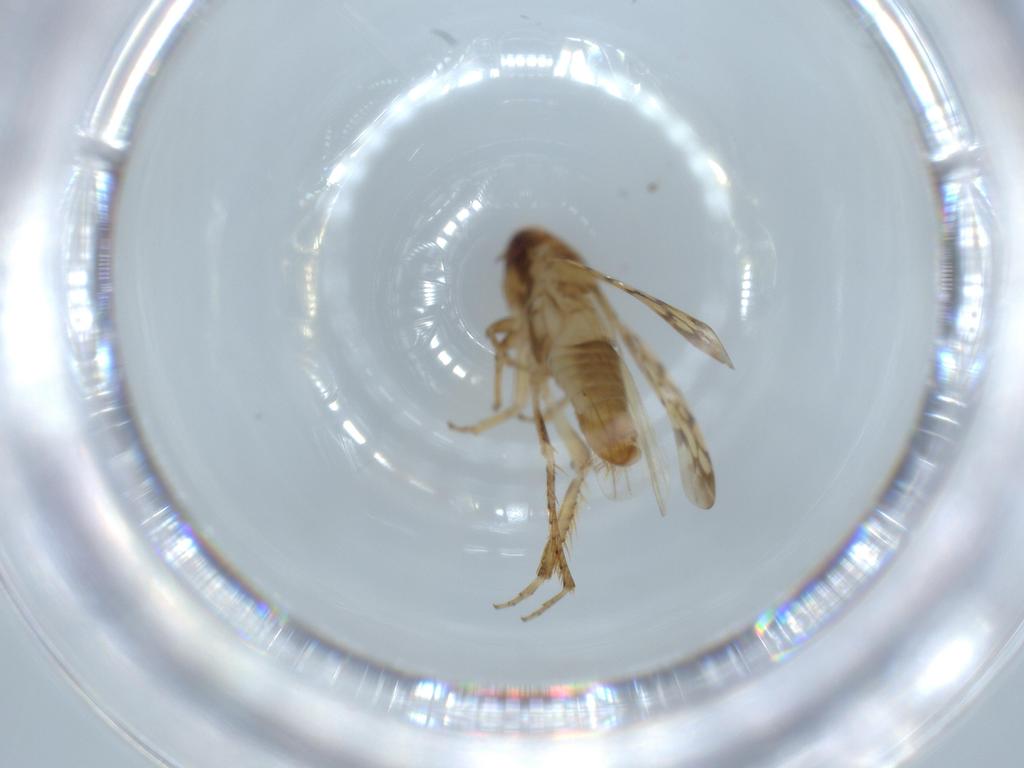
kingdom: Animalia
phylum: Arthropoda
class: Insecta
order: Hemiptera
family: Cicadellidae
